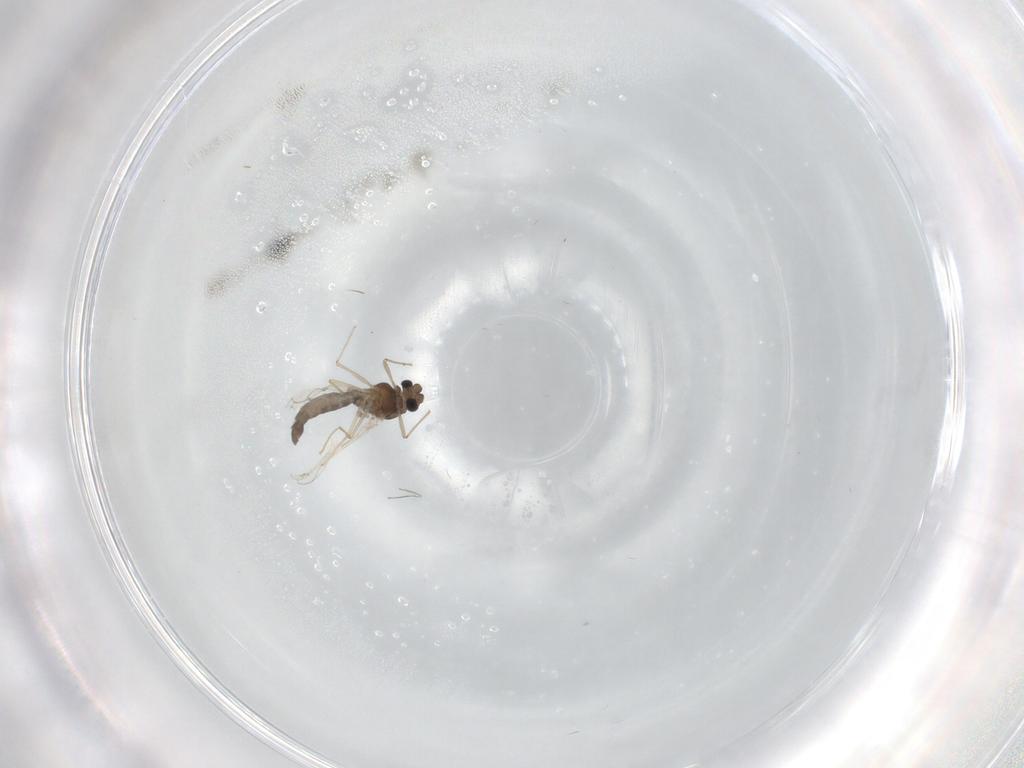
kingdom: Animalia
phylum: Arthropoda
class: Insecta
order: Diptera
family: Chironomidae
